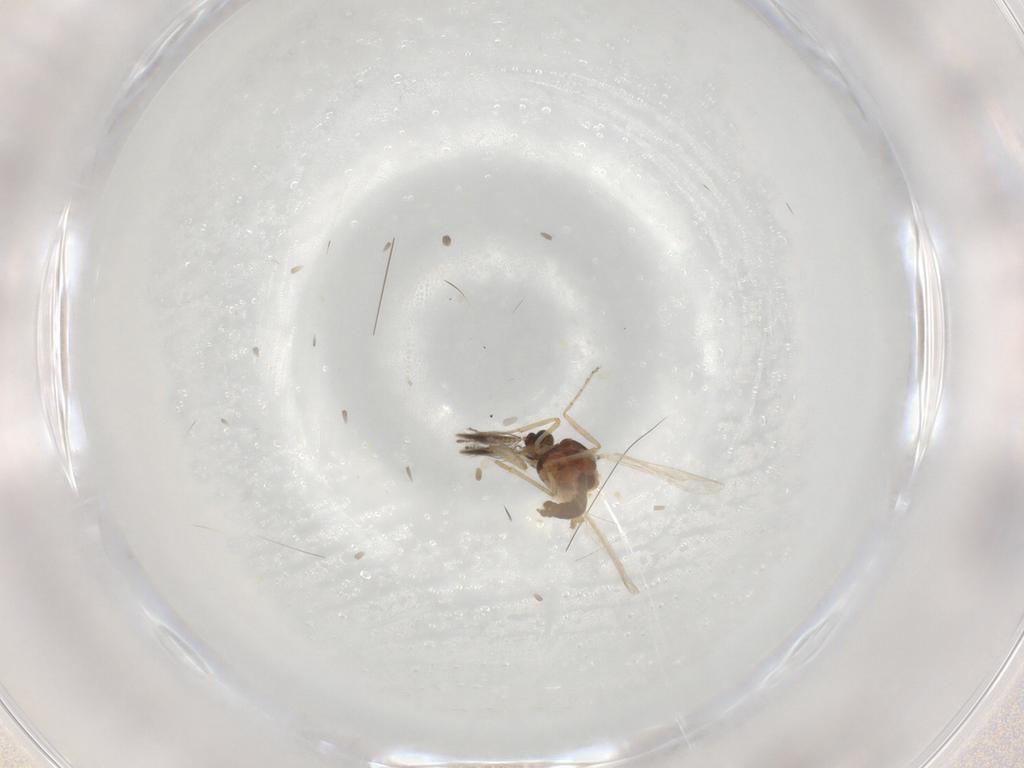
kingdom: Animalia
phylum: Arthropoda
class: Insecta
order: Diptera
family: Ceratopogonidae
